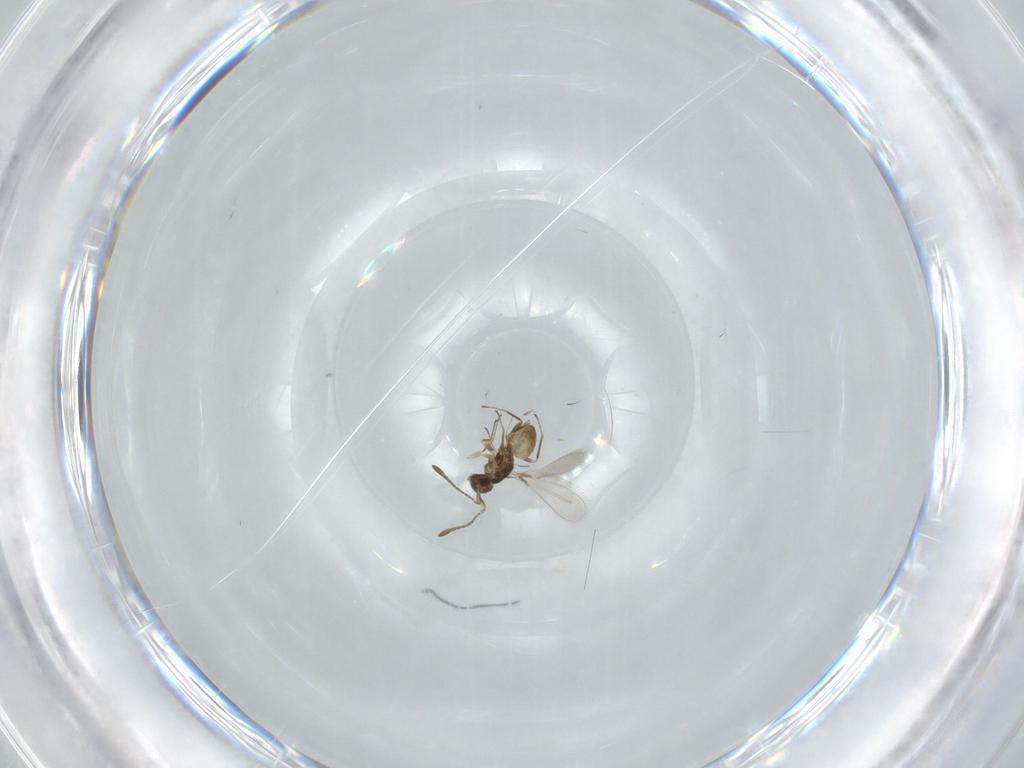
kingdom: Animalia
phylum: Arthropoda
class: Insecta
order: Hymenoptera
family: Mymaridae
